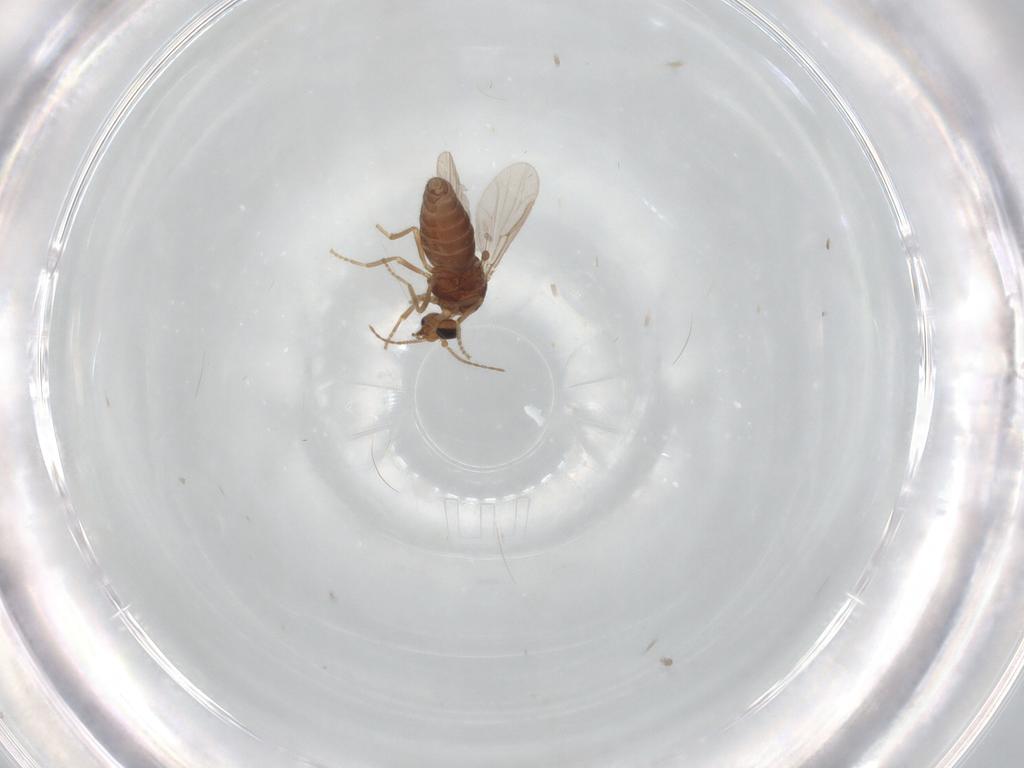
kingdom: Animalia
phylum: Arthropoda
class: Insecta
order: Diptera
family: Ceratopogonidae
